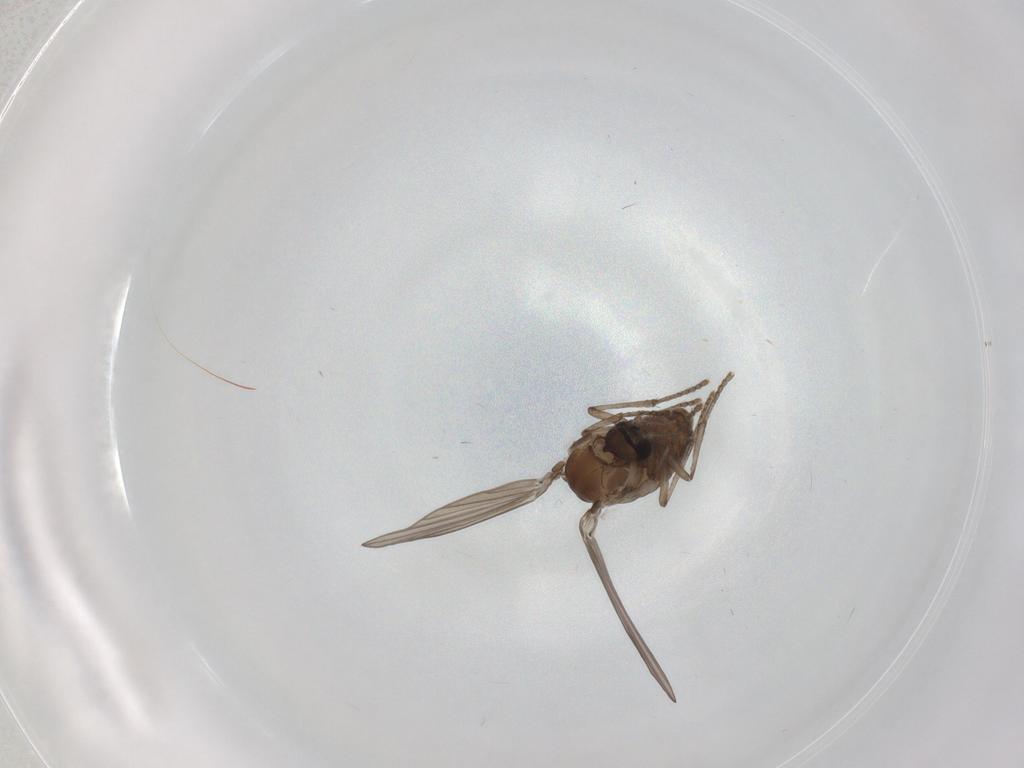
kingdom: Animalia
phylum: Arthropoda
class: Insecta
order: Diptera
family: Psychodidae
